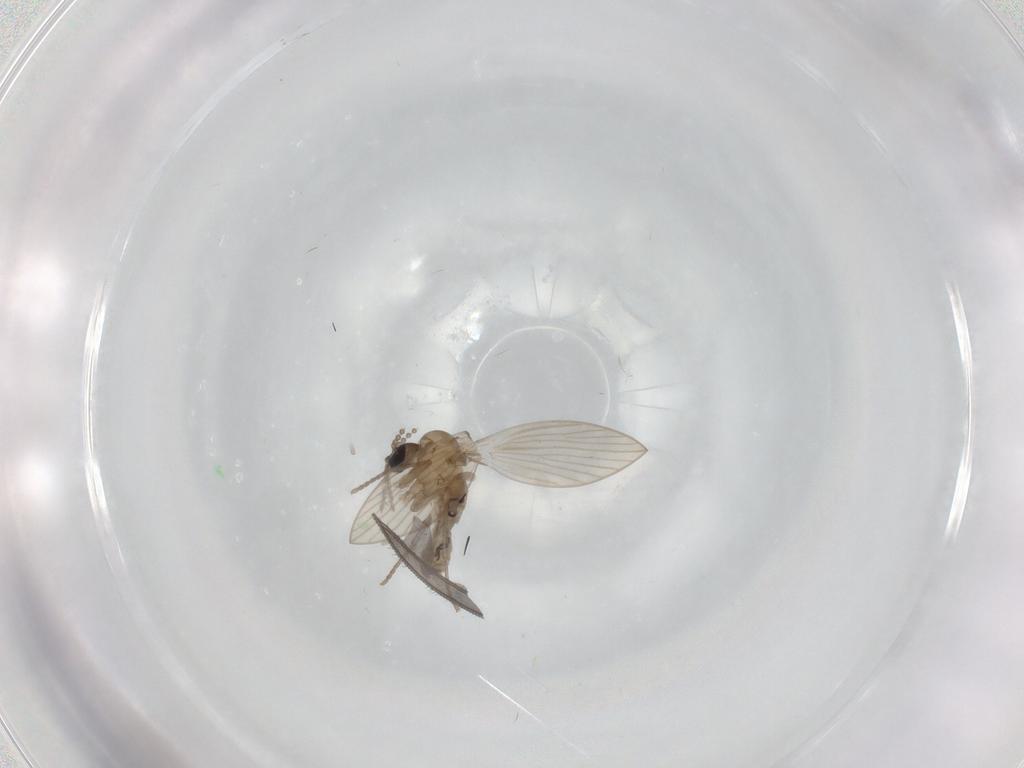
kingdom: Animalia
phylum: Arthropoda
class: Insecta
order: Diptera
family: Psychodidae
